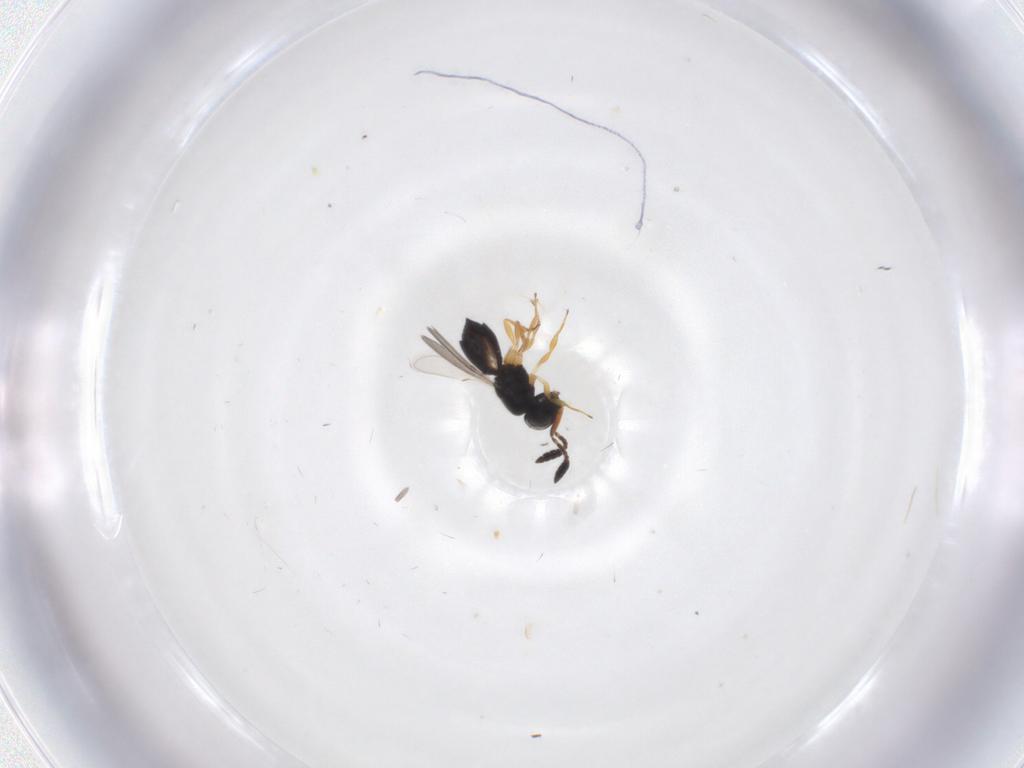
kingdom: Animalia
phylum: Arthropoda
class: Insecta
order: Hymenoptera
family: Scelionidae
